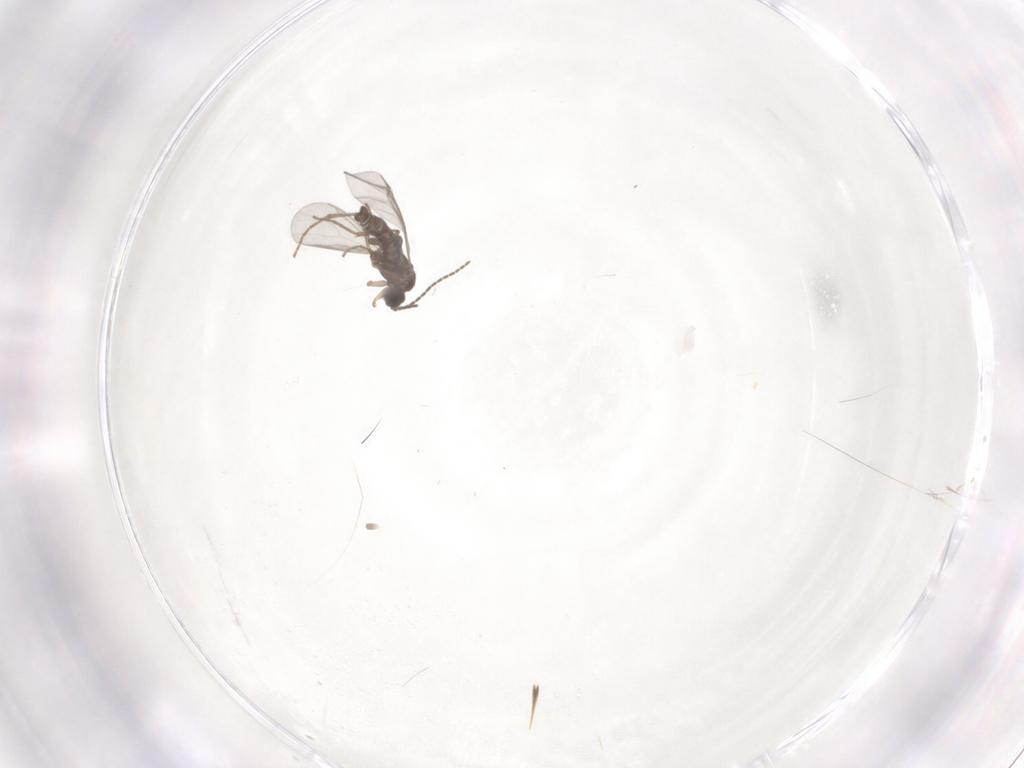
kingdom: Animalia
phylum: Arthropoda
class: Insecta
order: Diptera
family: Sciaridae
